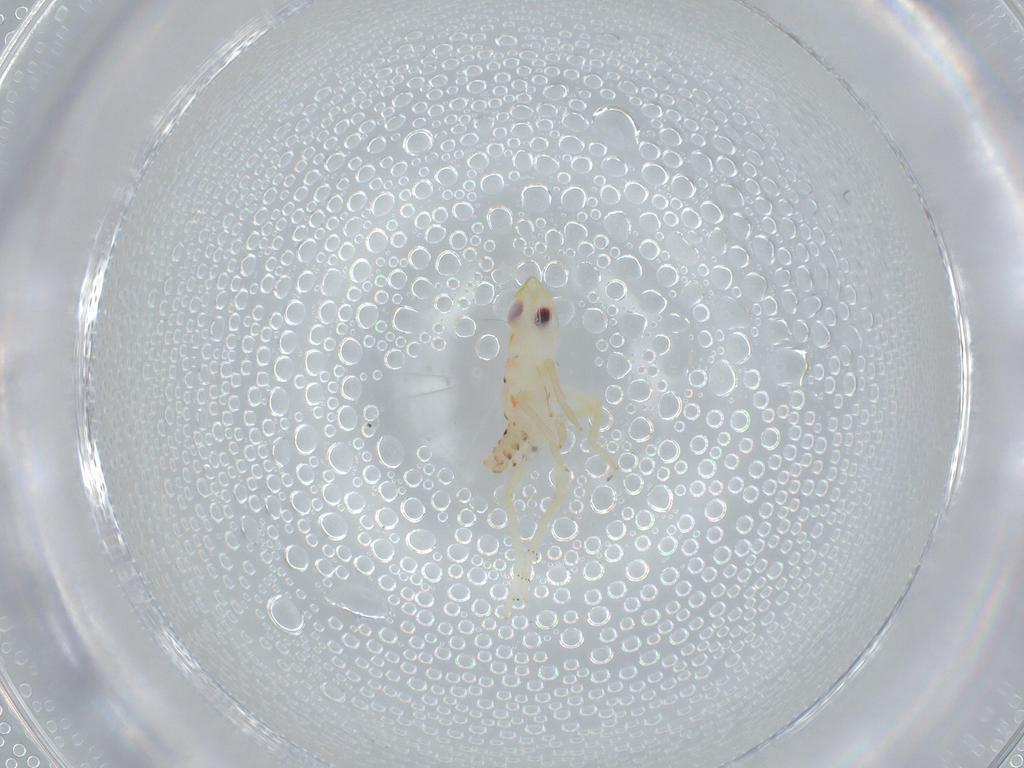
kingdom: Animalia
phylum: Arthropoda
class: Insecta
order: Hemiptera
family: Tropiduchidae
